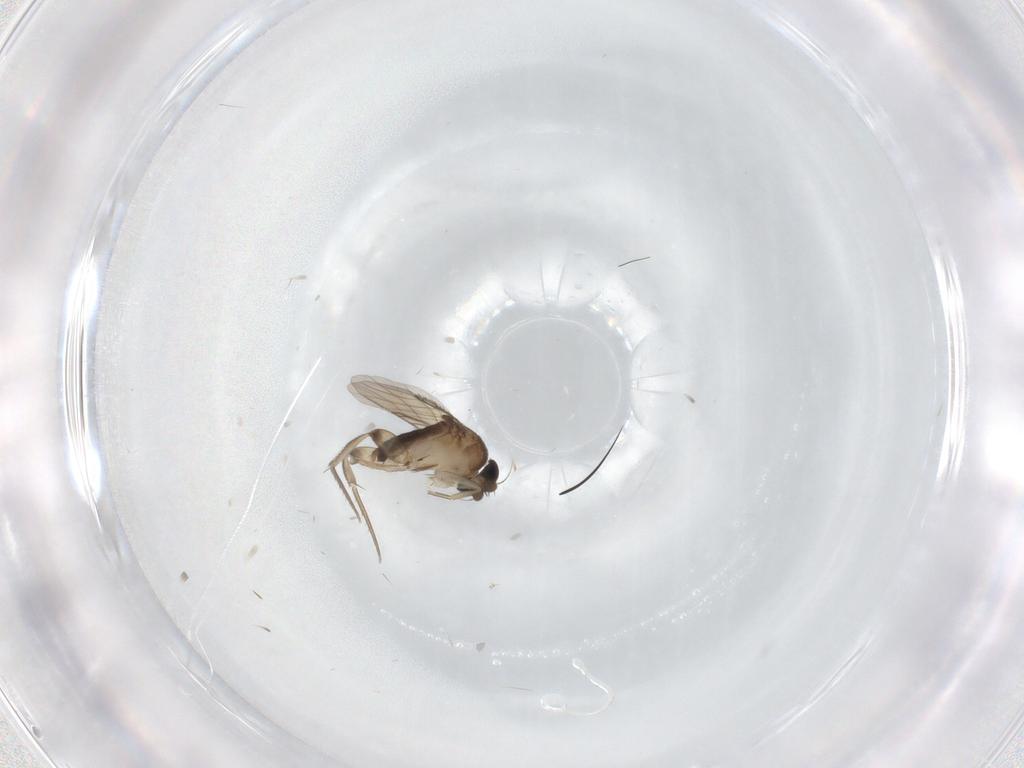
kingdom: Animalia
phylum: Arthropoda
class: Insecta
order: Diptera
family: Phoridae
